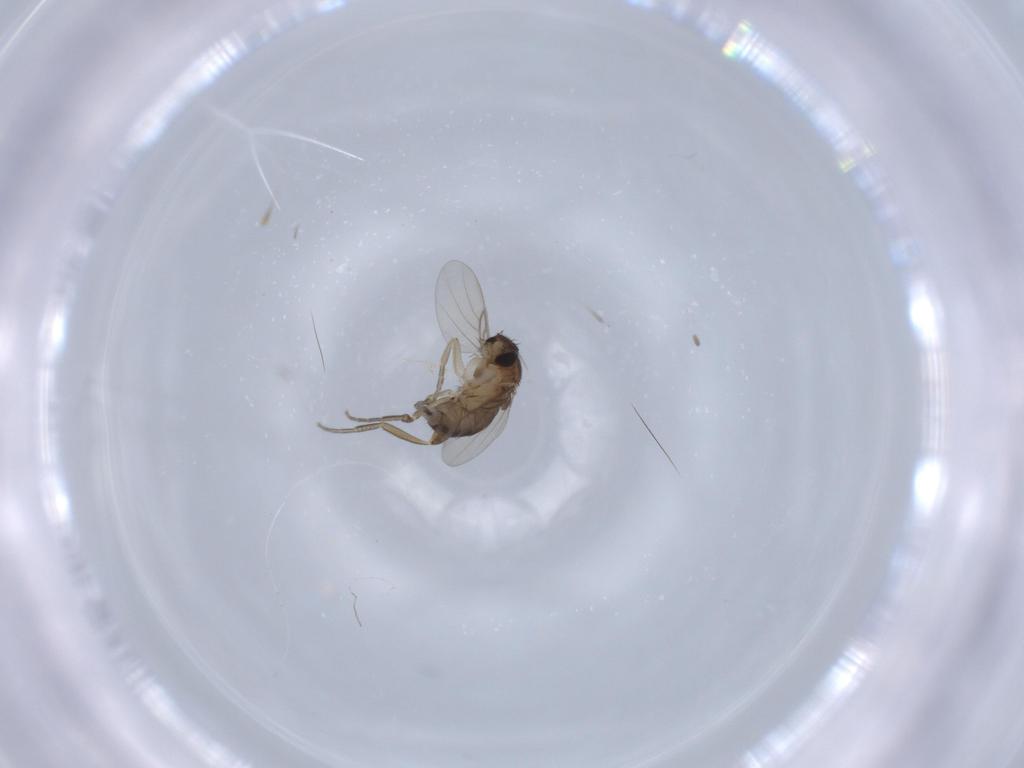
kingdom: Animalia
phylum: Arthropoda
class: Insecta
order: Diptera
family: Phoridae
